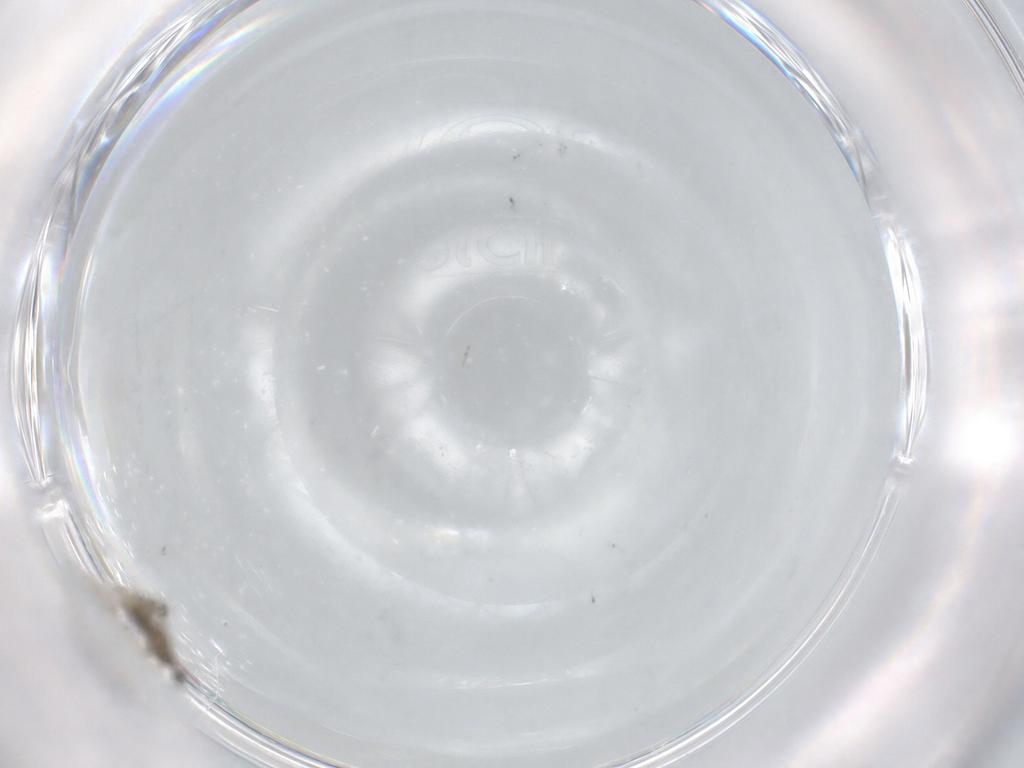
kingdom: Animalia
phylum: Arthropoda
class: Insecta
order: Diptera
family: Cecidomyiidae
